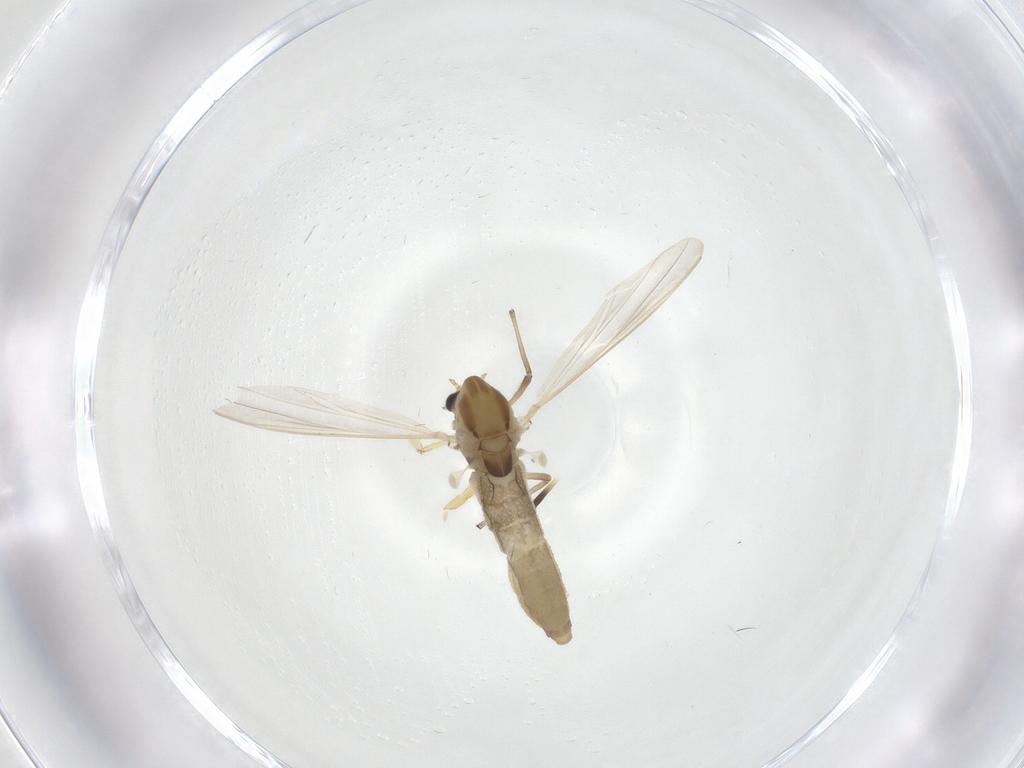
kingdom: Animalia
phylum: Arthropoda
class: Insecta
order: Diptera
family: Chironomidae
